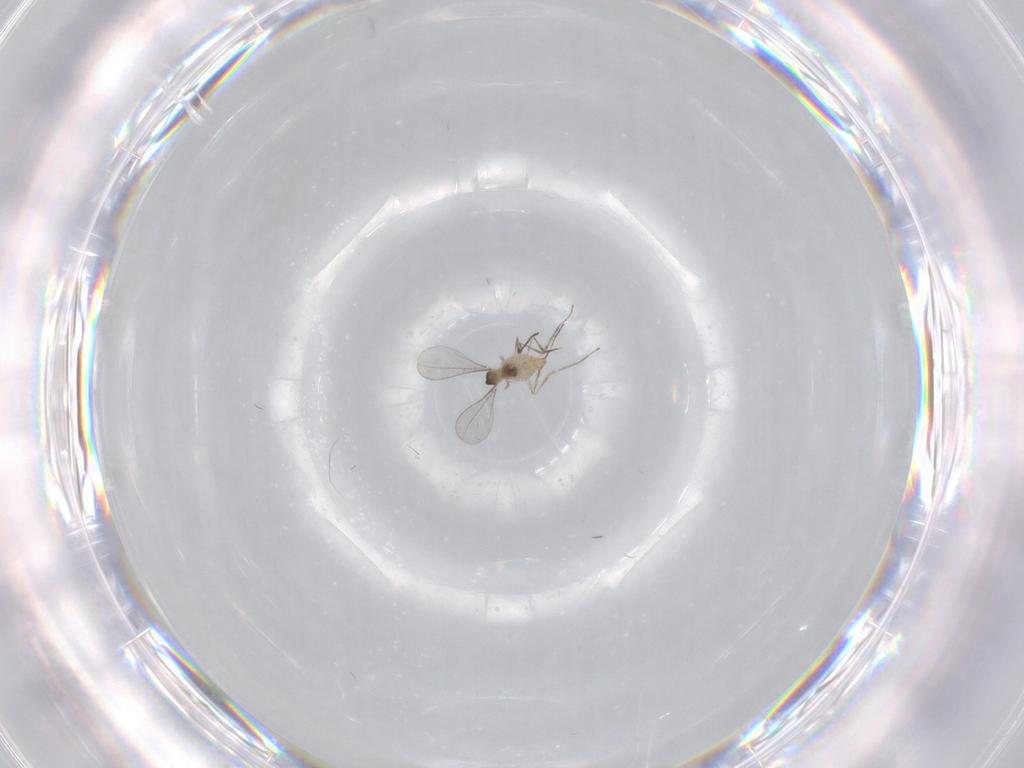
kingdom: Animalia
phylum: Arthropoda
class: Insecta
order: Diptera
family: Cecidomyiidae
